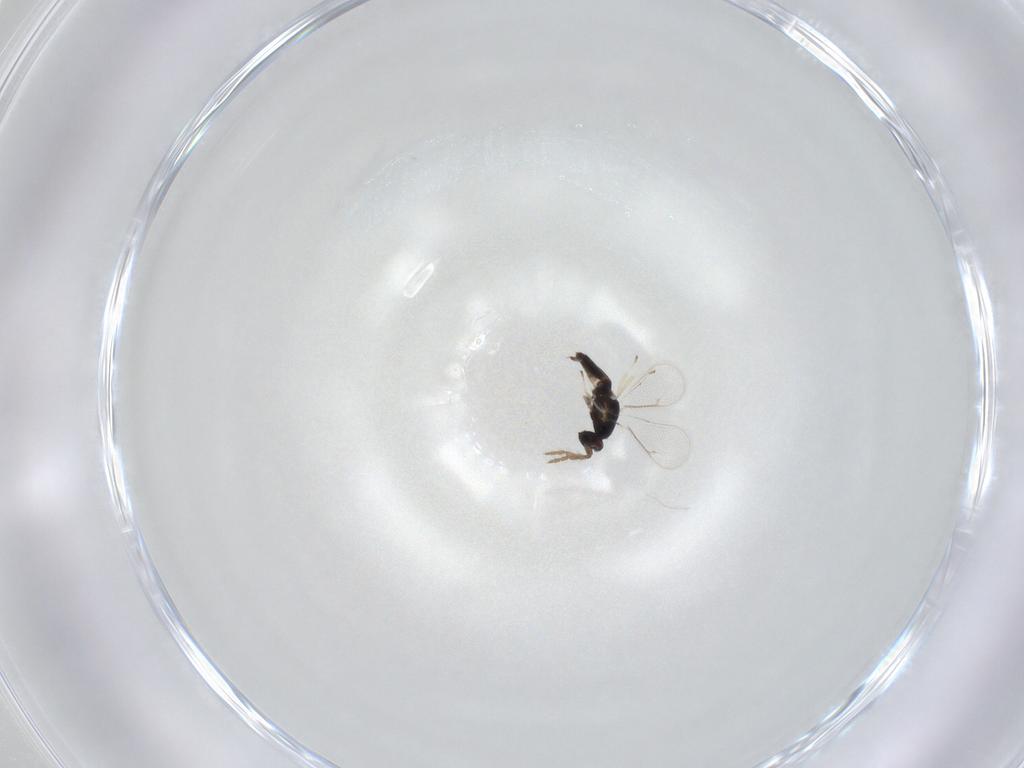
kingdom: Animalia
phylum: Arthropoda
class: Insecta
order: Hymenoptera
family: Eulophidae
